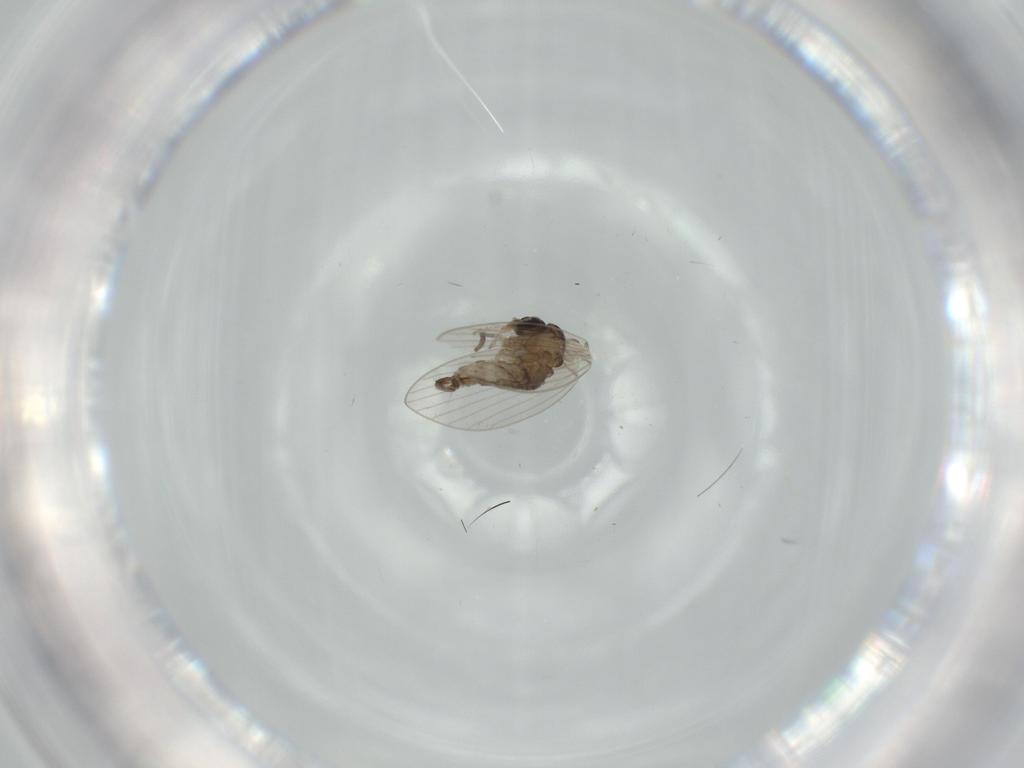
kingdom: Animalia
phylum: Arthropoda
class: Insecta
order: Diptera
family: Psychodidae
